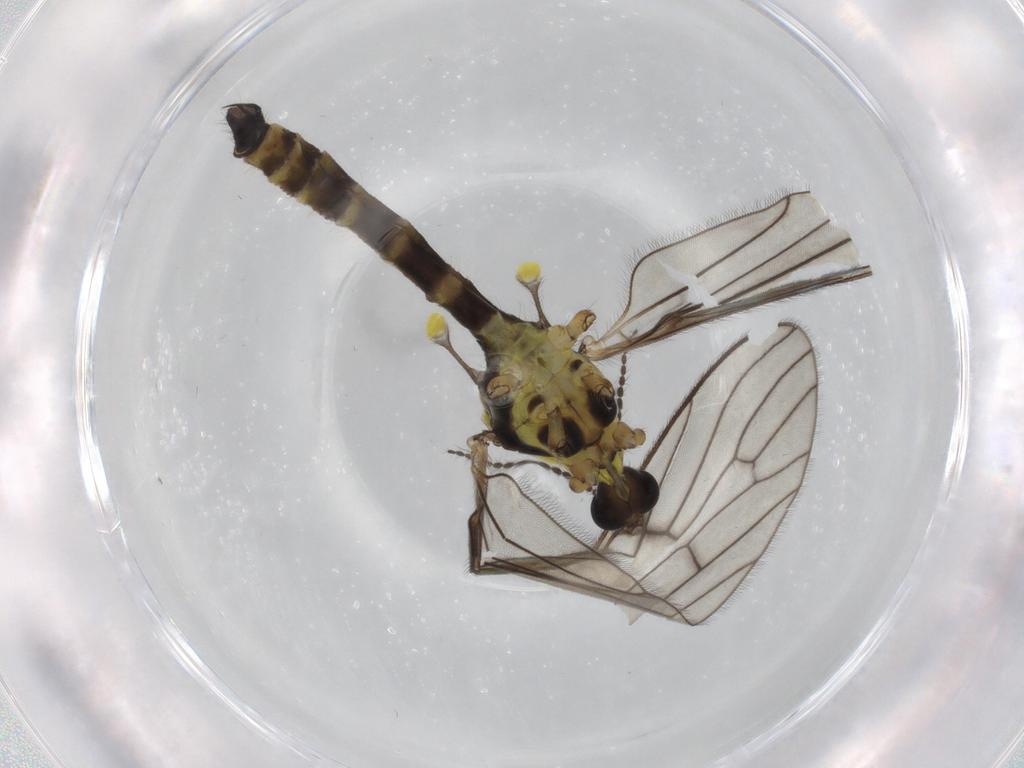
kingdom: Animalia
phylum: Arthropoda
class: Insecta
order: Diptera
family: Limoniidae
